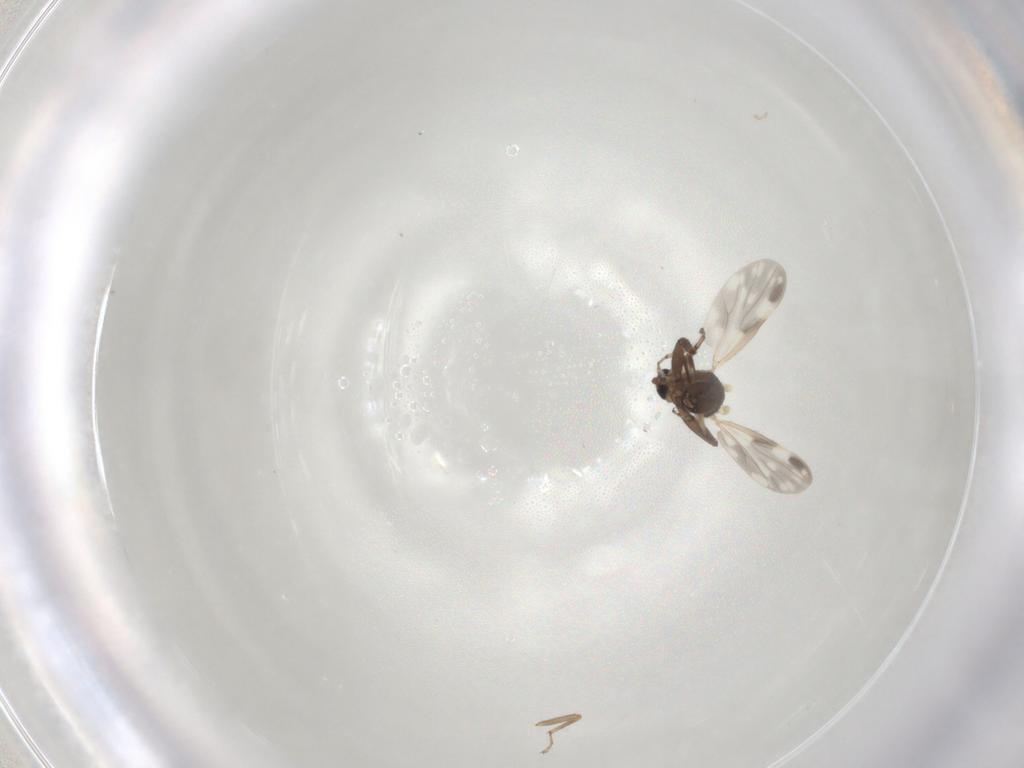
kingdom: Animalia
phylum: Arthropoda
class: Insecta
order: Diptera
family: Ceratopogonidae
